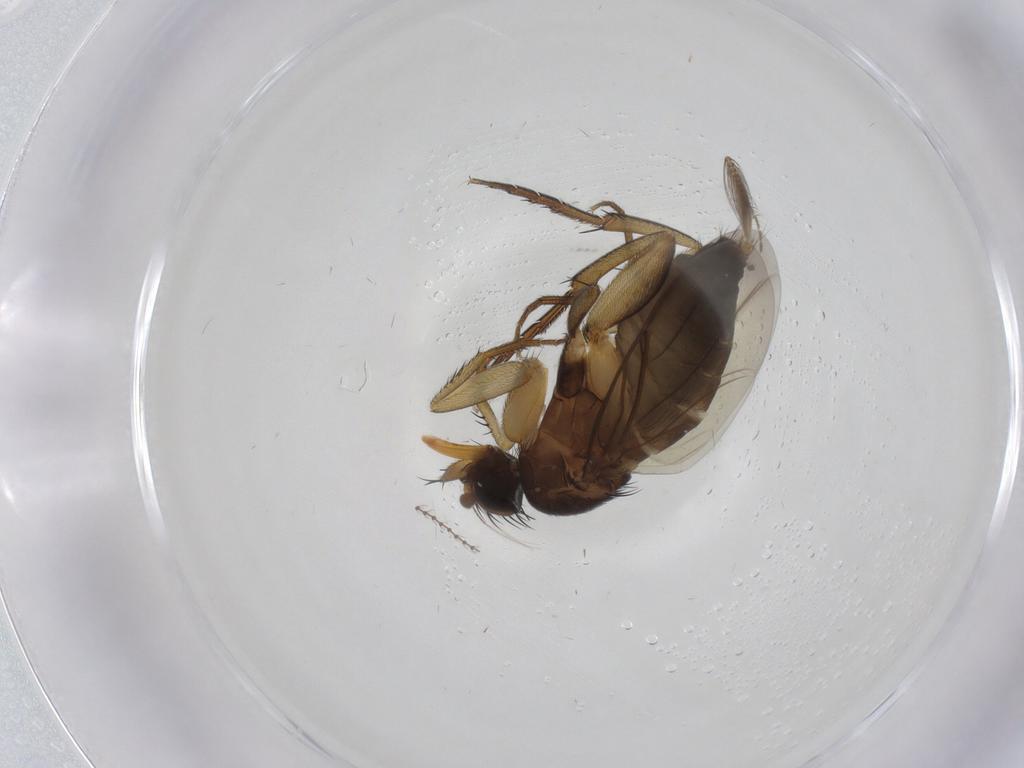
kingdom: Animalia
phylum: Arthropoda
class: Insecta
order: Diptera
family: Phoridae
